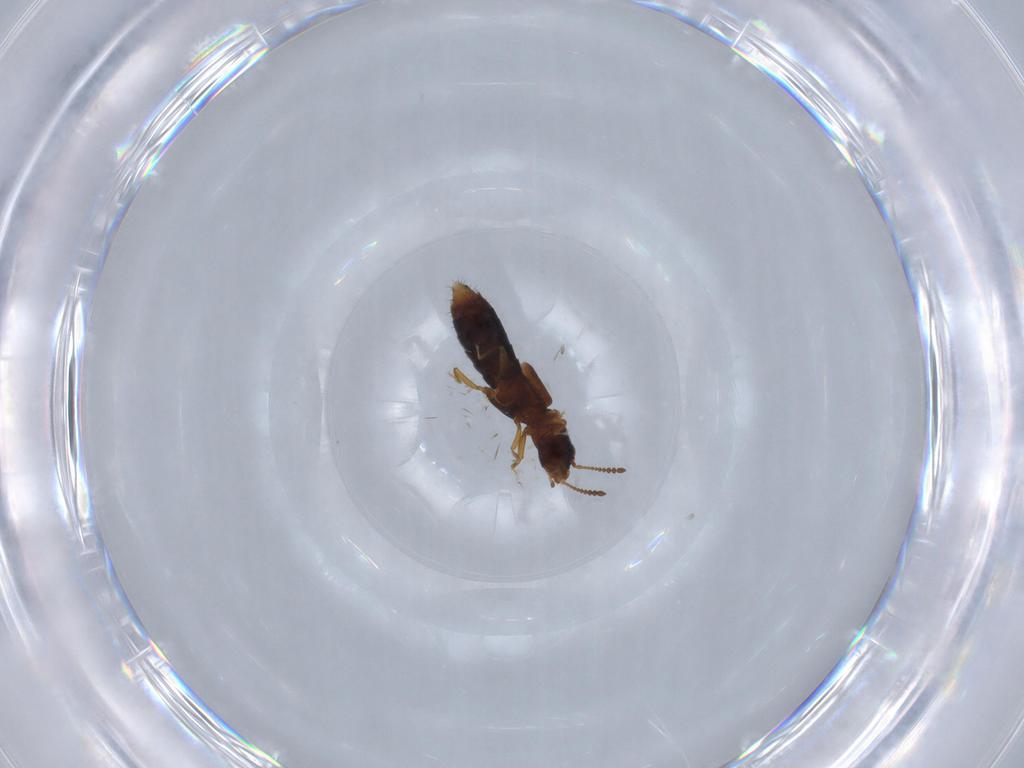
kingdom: Animalia
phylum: Arthropoda
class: Insecta
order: Coleoptera
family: Staphylinidae
